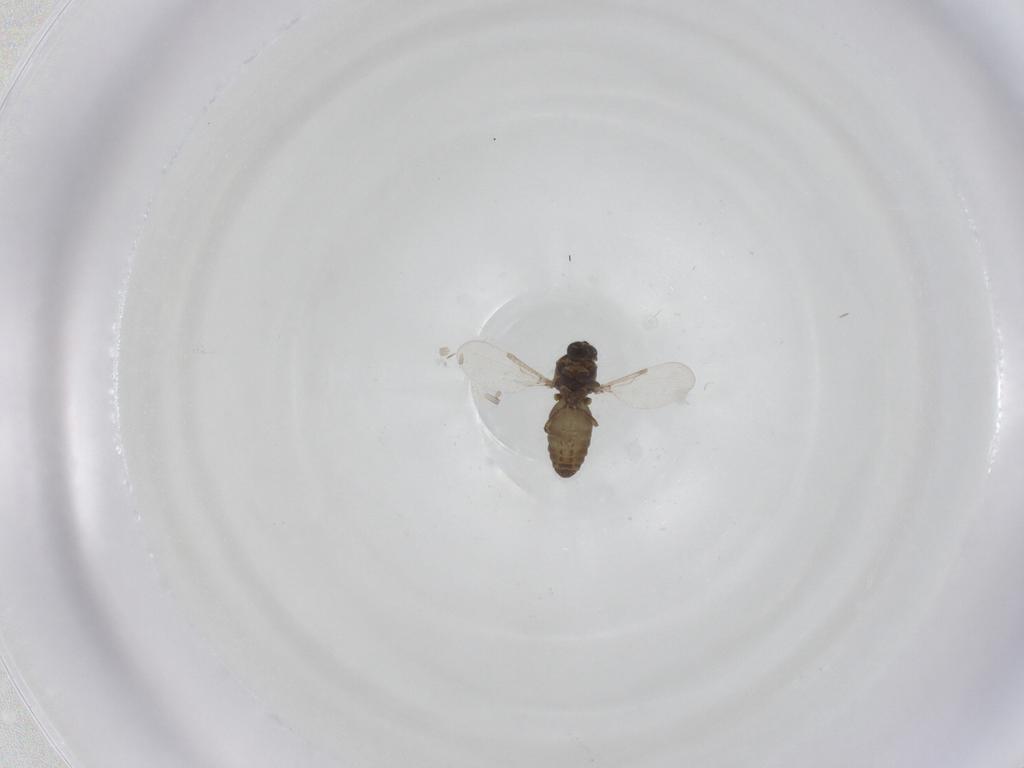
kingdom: Animalia
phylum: Arthropoda
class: Insecta
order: Diptera
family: Ceratopogonidae
